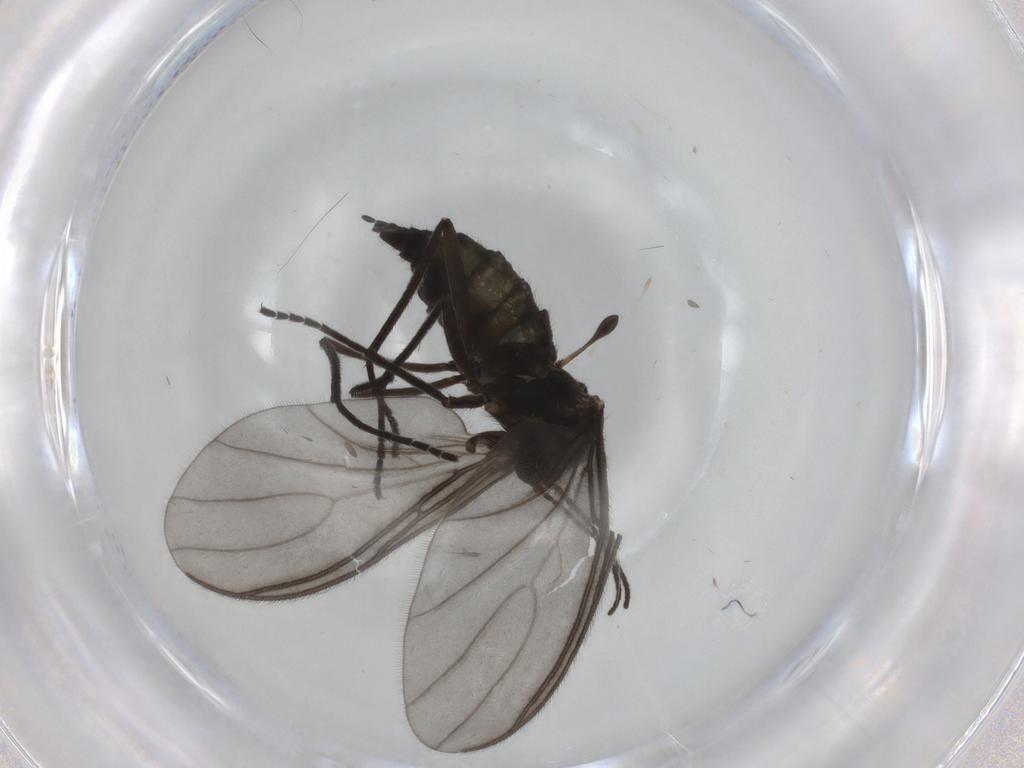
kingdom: Animalia
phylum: Arthropoda
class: Insecta
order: Diptera
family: Sciaridae
